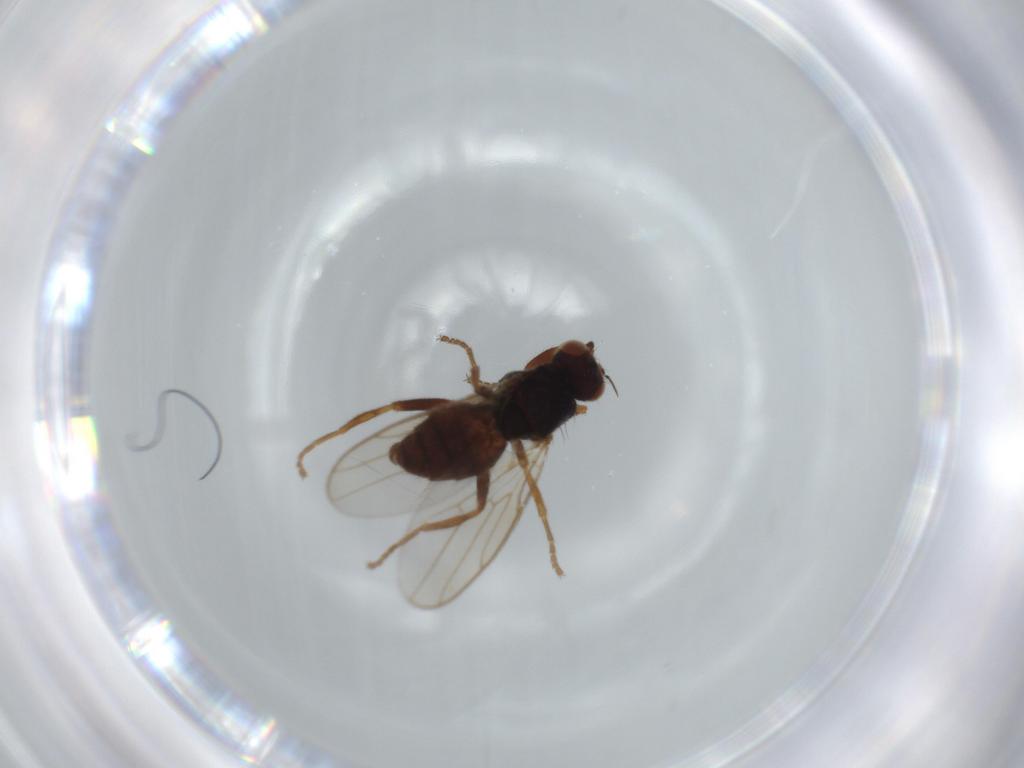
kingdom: Animalia
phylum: Arthropoda
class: Insecta
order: Diptera
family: Chloropidae
